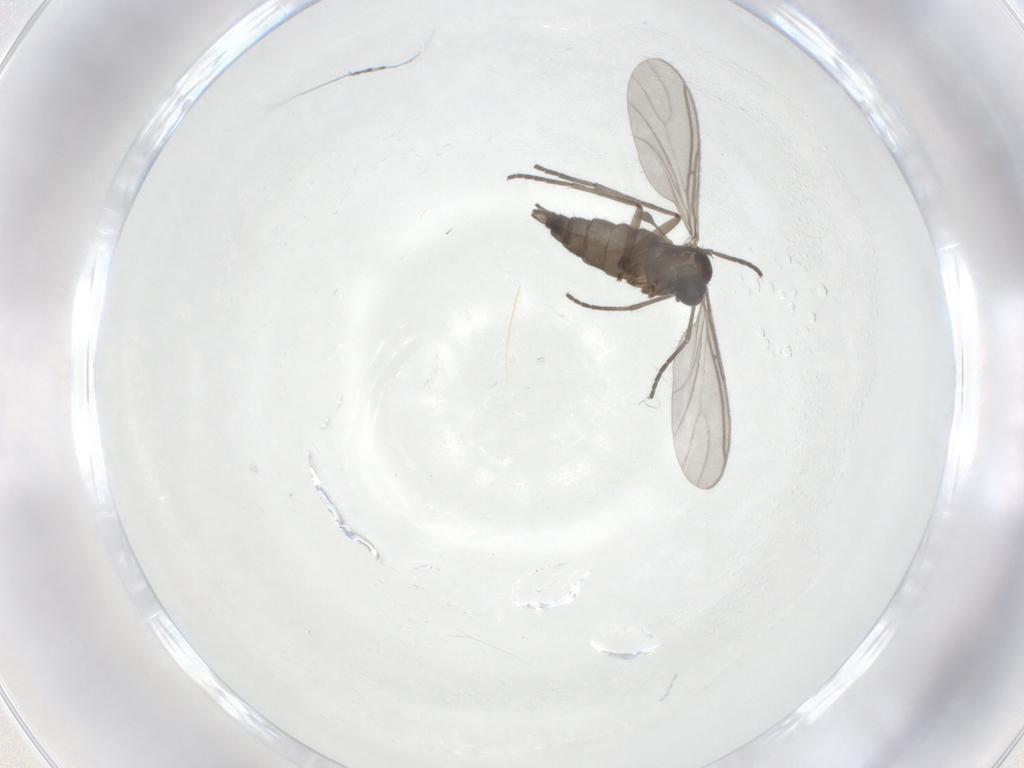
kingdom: Animalia
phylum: Arthropoda
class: Insecta
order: Diptera
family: Sciaridae
